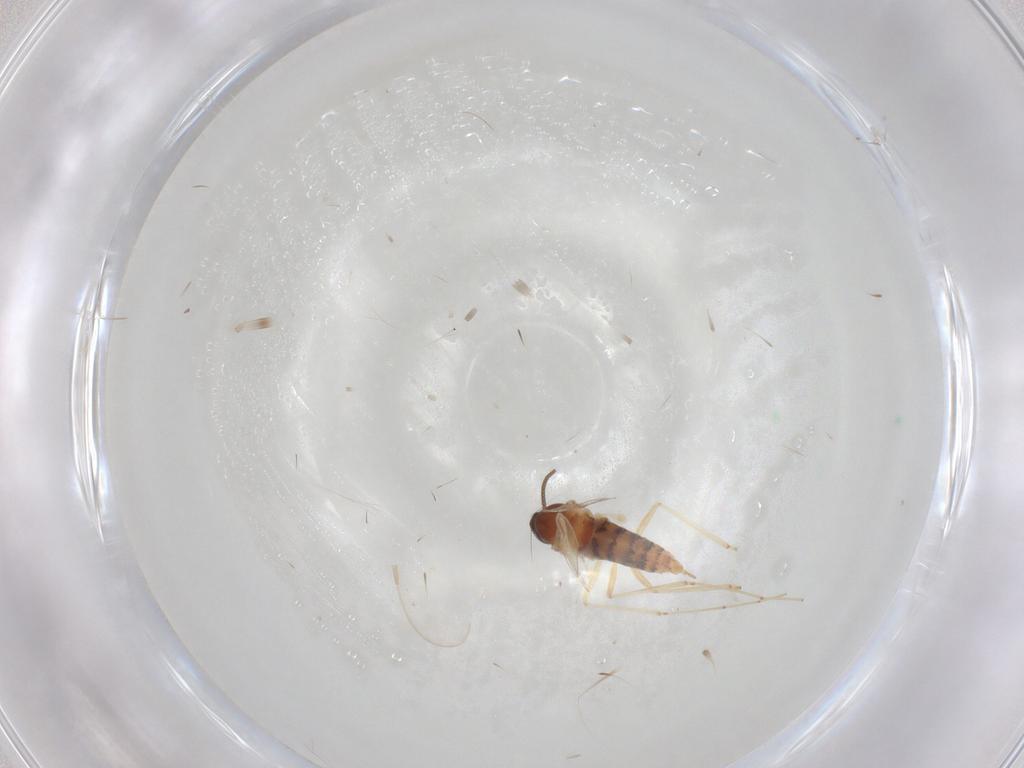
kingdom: Animalia
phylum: Arthropoda
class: Insecta
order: Diptera
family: Cecidomyiidae
